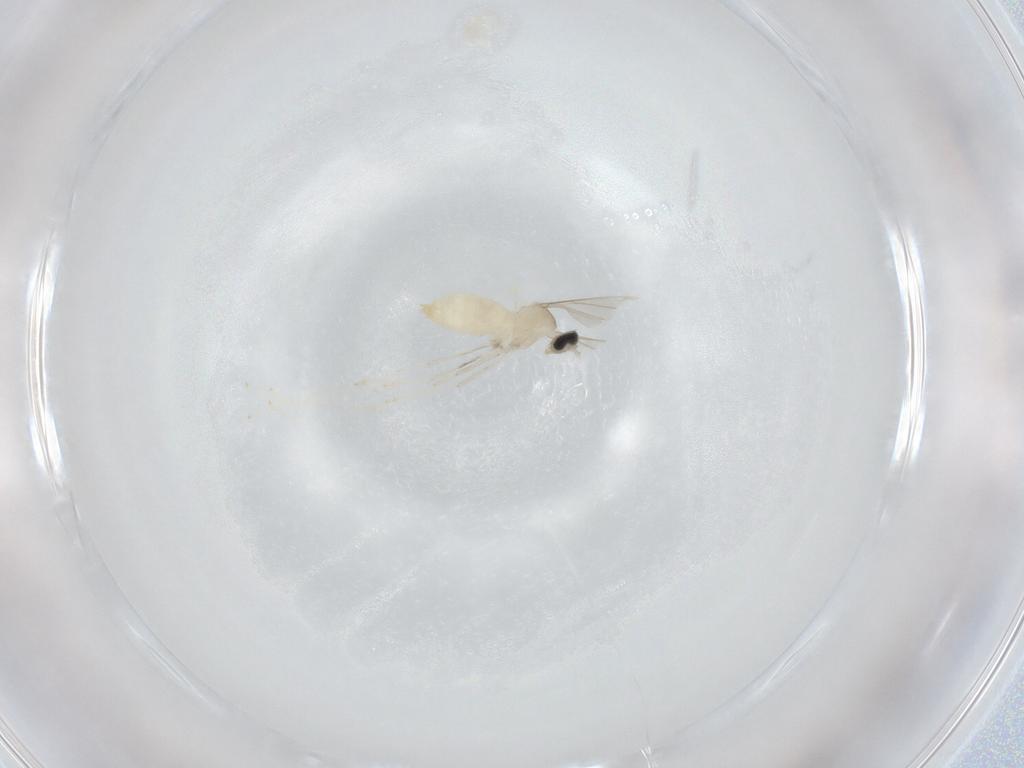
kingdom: Animalia
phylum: Arthropoda
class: Insecta
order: Diptera
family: Cecidomyiidae
